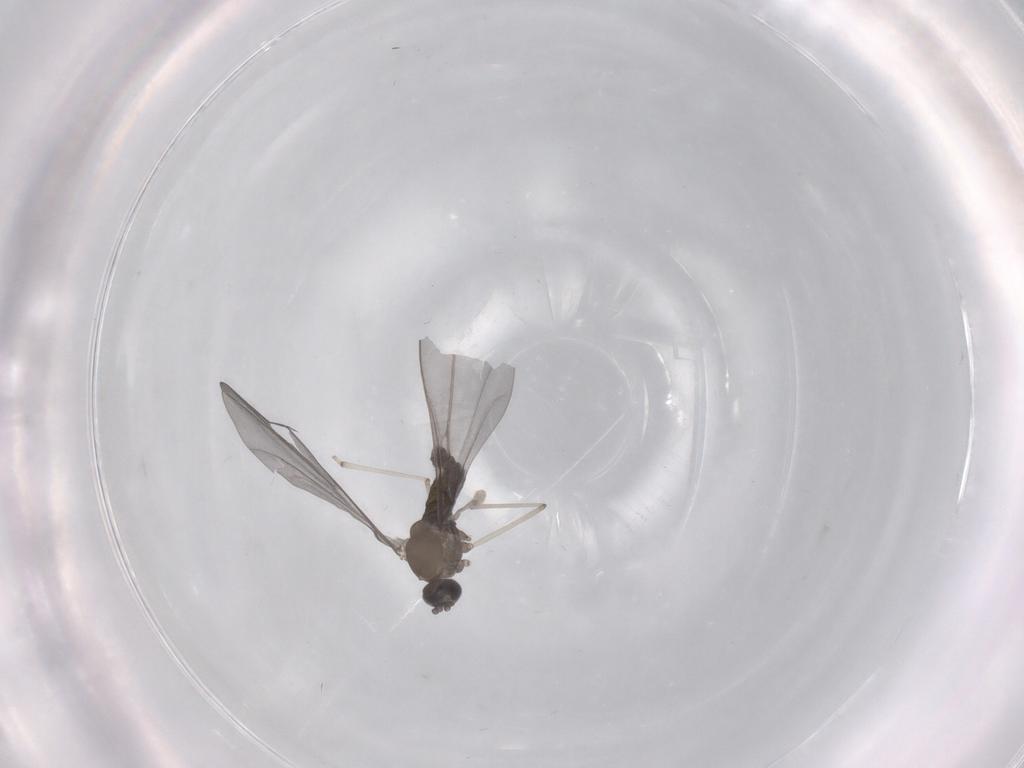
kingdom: Animalia
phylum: Arthropoda
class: Insecta
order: Diptera
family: Cecidomyiidae
